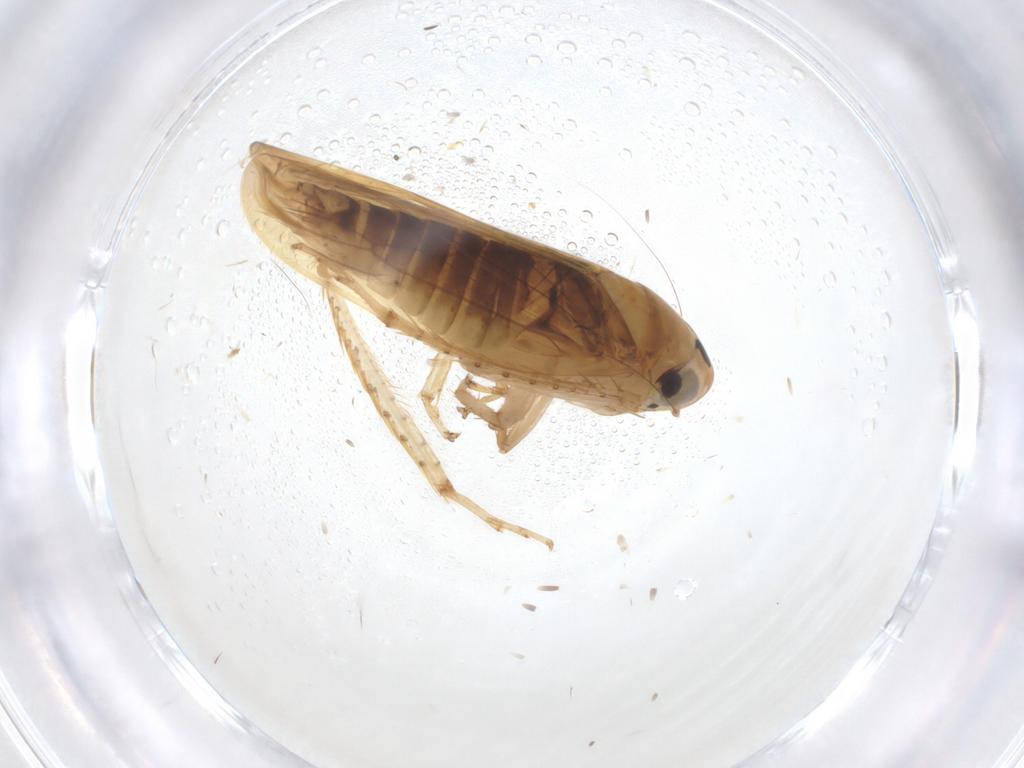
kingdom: Animalia
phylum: Arthropoda
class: Insecta
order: Hemiptera
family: Cicadellidae
